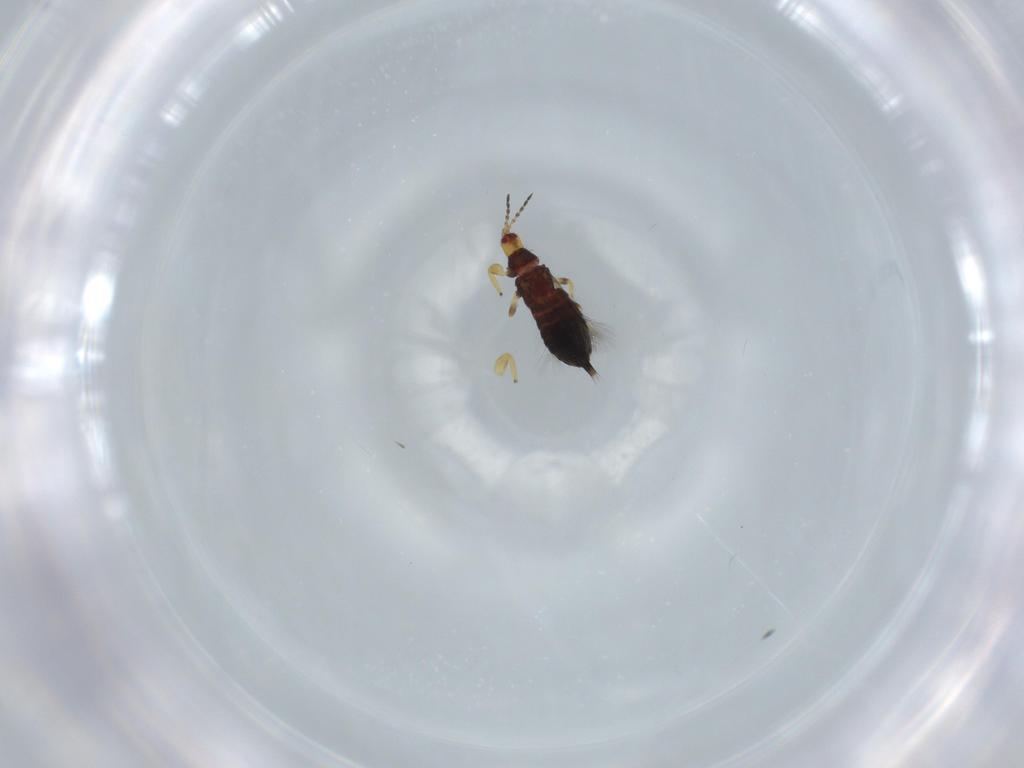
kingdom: Animalia
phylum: Arthropoda
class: Insecta
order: Thysanoptera
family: Phlaeothripidae
